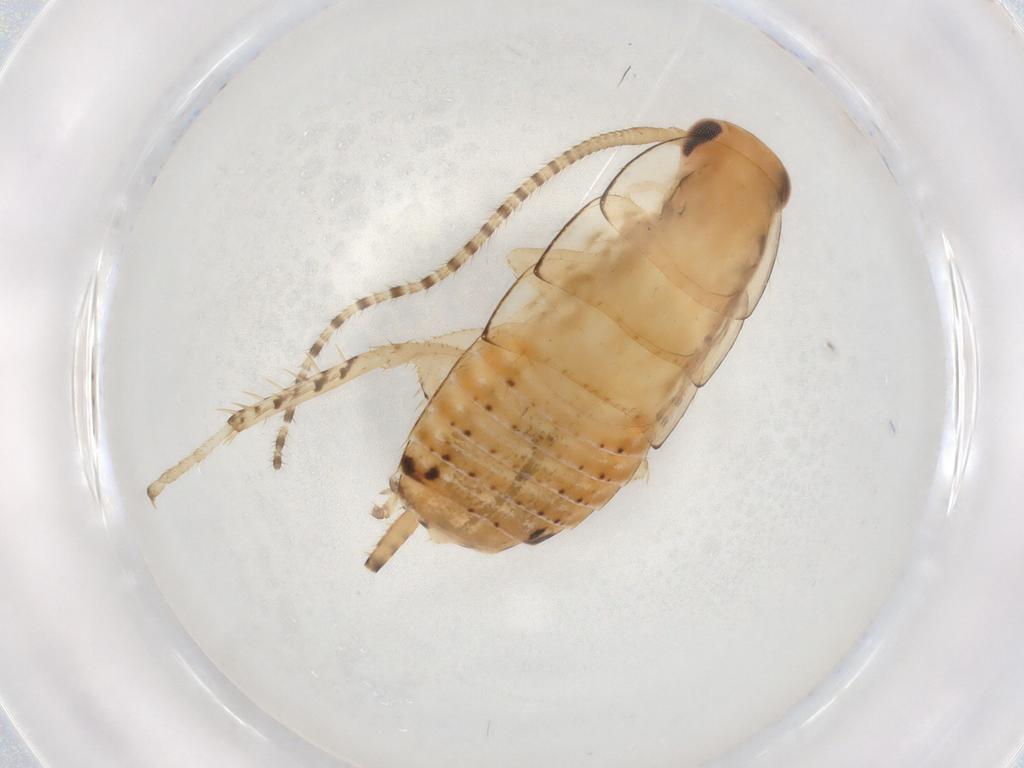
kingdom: Animalia
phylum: Arthropoda
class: Insecta
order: Blattodea
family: Ectobiidae
